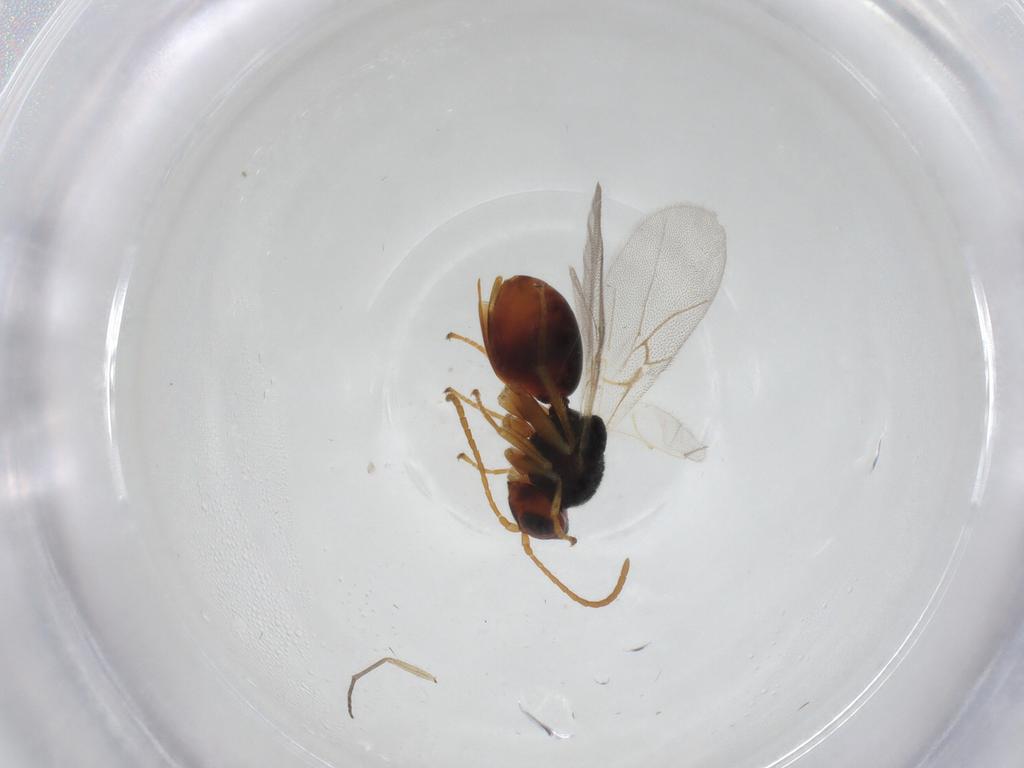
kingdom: Animalia
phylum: Arthropoda
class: Insecta
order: Hymenoptera
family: Cynipidae
